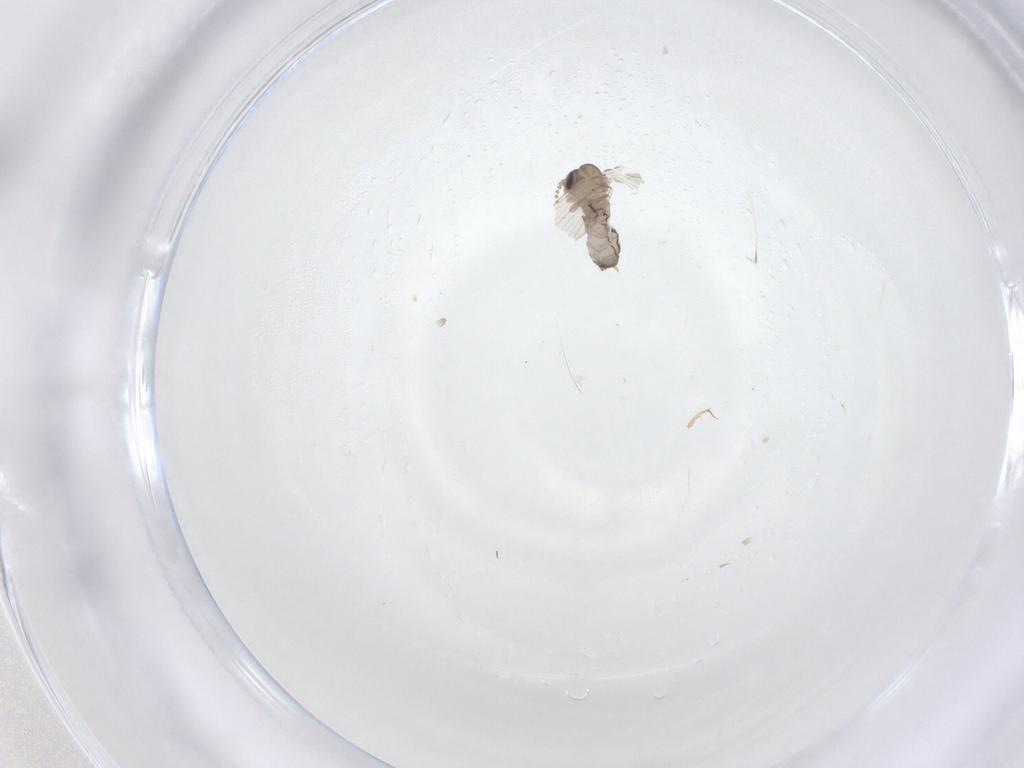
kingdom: Animalia
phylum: Arthropoda
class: Insecta
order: Diptera
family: Psychodidae
